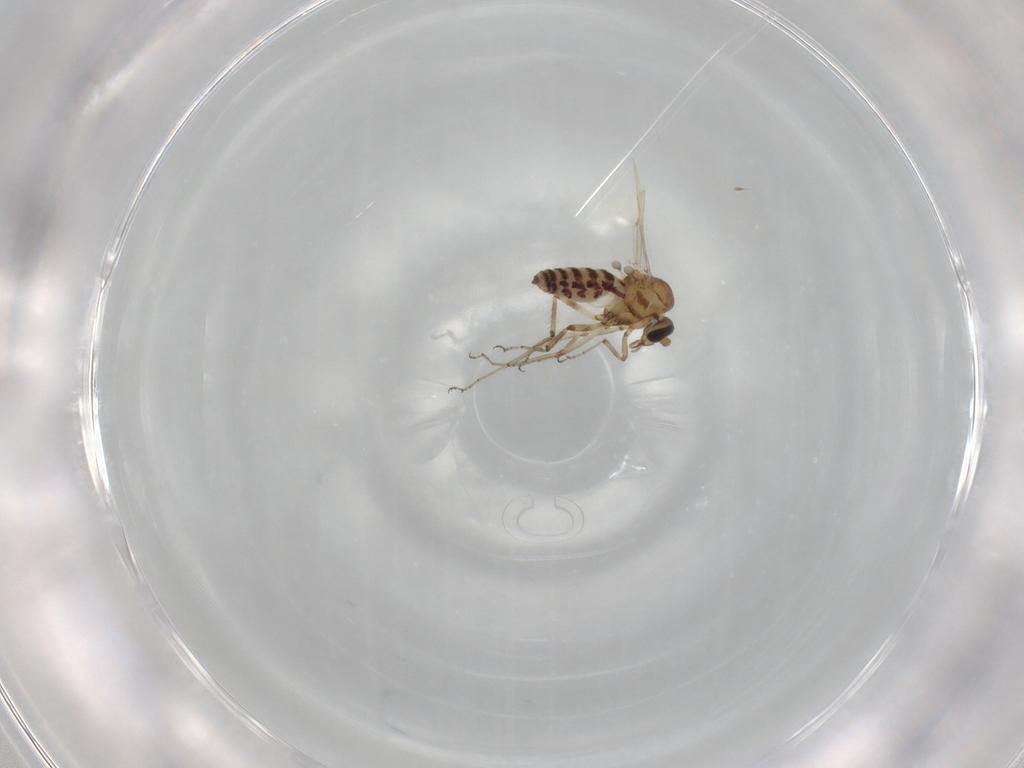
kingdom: Animalia
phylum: Arthropoda
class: Insecta
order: Diptera
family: Ceratopogonidae
